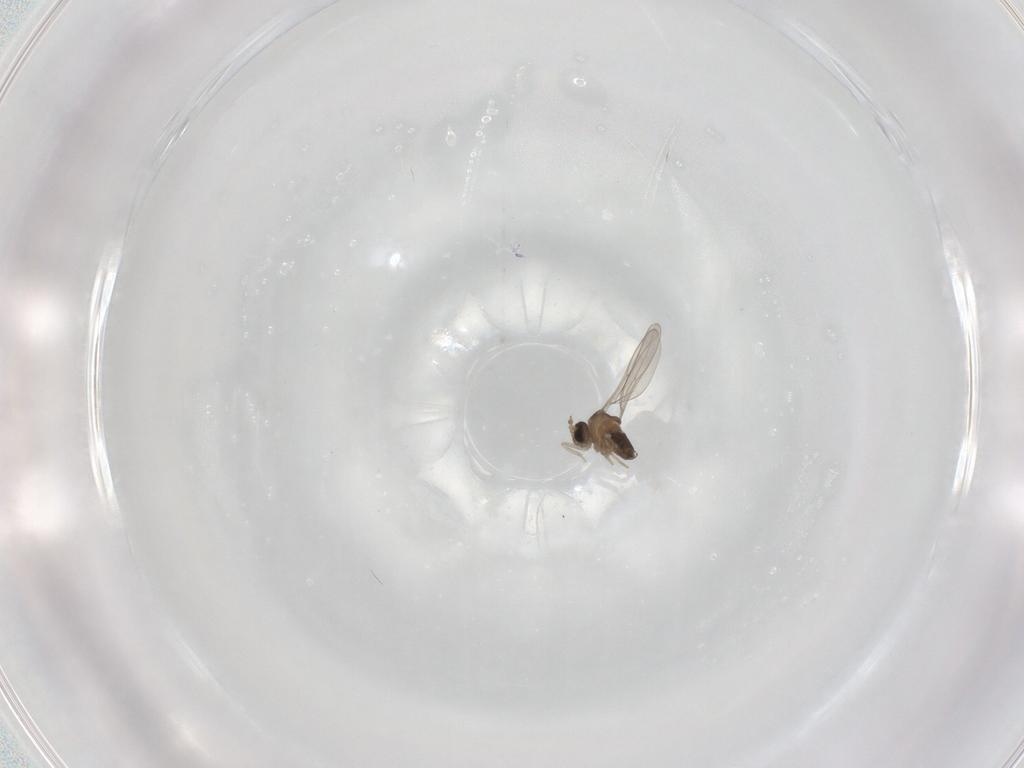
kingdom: Animalia
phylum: Arthropoda
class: Insecta
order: Diptera
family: Cecidomyiidae
